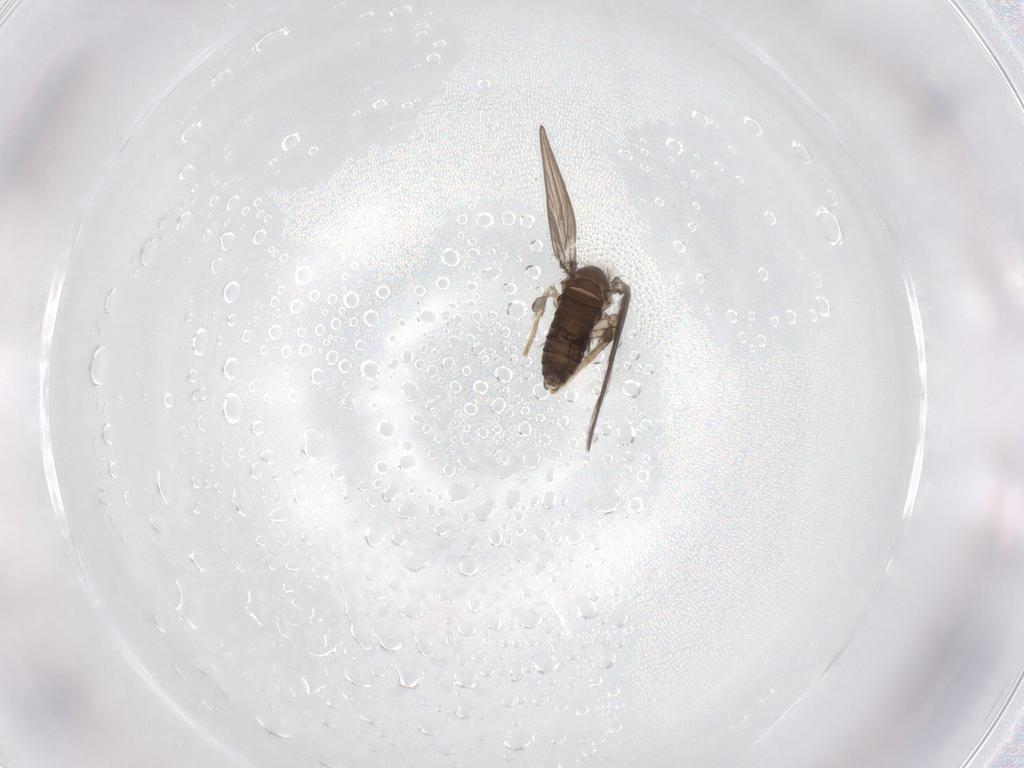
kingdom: Animalia
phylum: Arthropoda
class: Insecta
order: Diptera
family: Psychodidae
